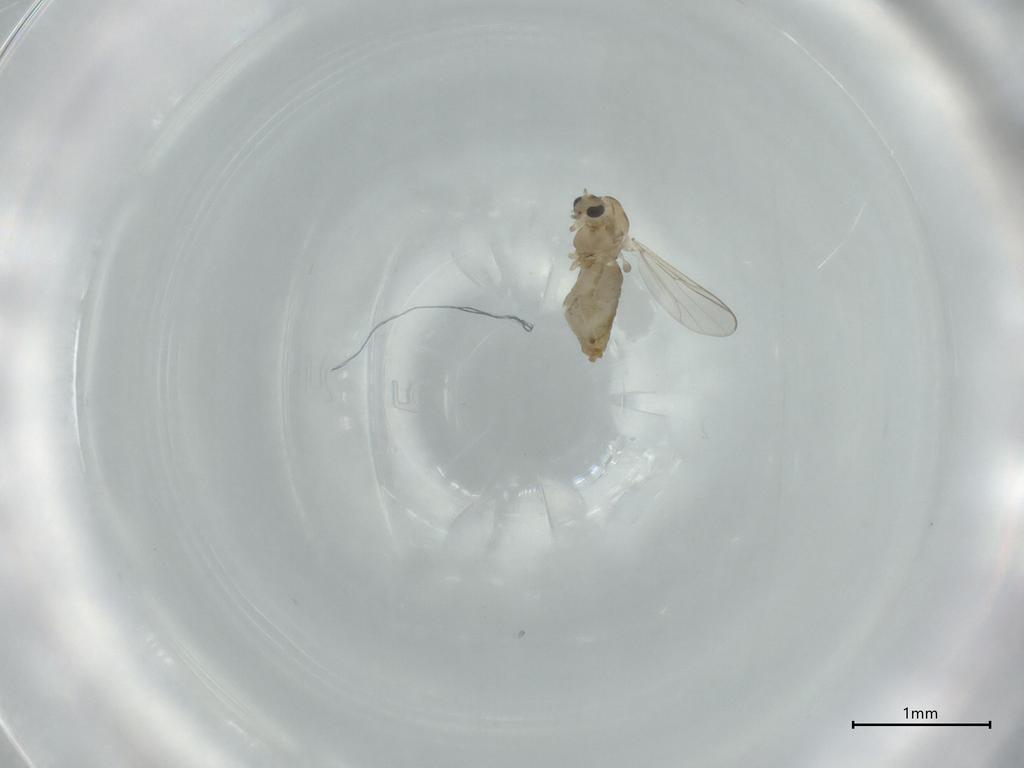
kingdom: Animalia
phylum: Arthropoda
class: Insecta
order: Diptera
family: Chironomidae
